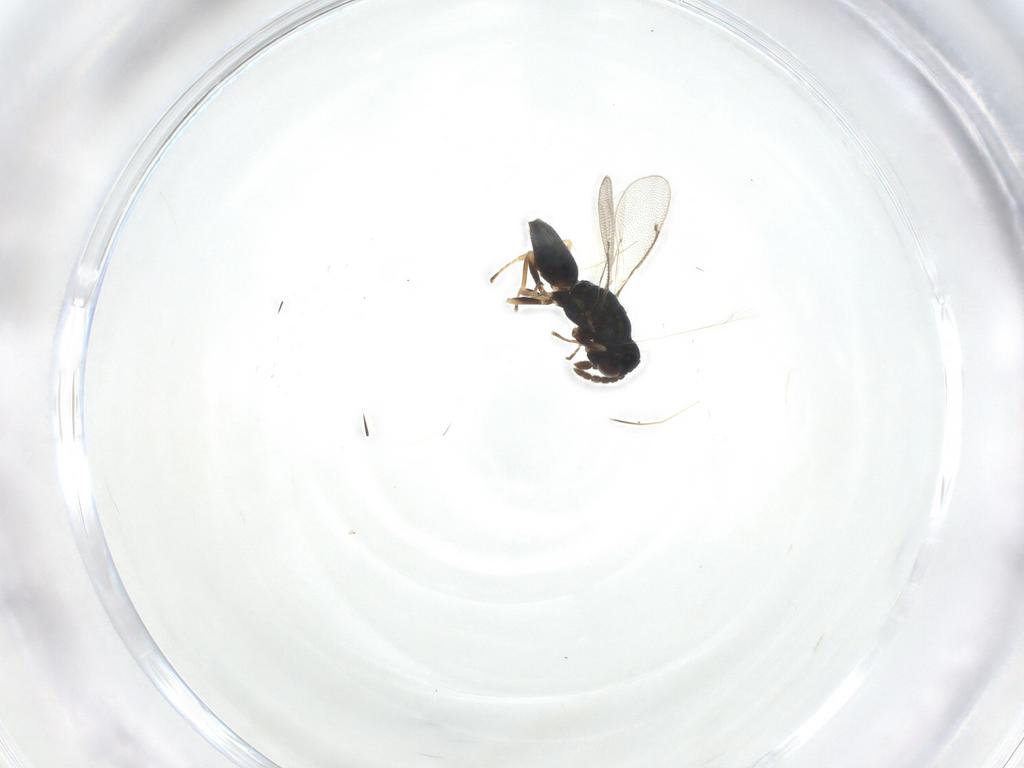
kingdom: Animalia
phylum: Arthropoda
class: Insecta
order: Hymenoptera
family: Eulophidae
